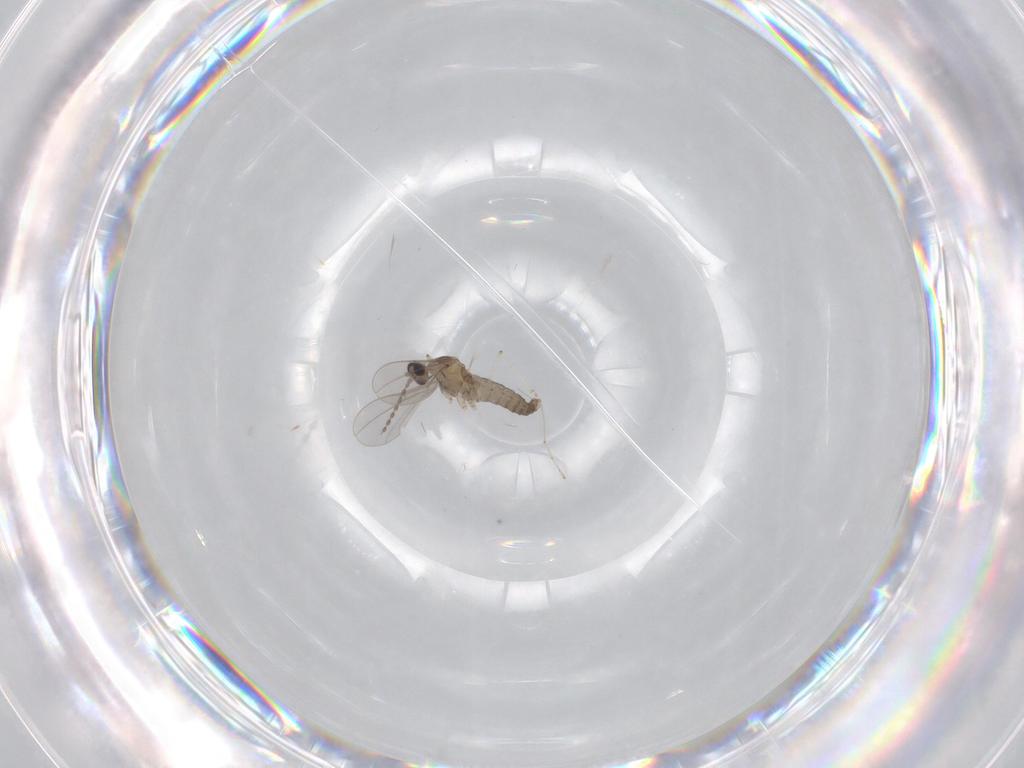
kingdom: Animalia
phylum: Arthropoda
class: Insecta
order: Diptera
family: Cecidomyiidae
